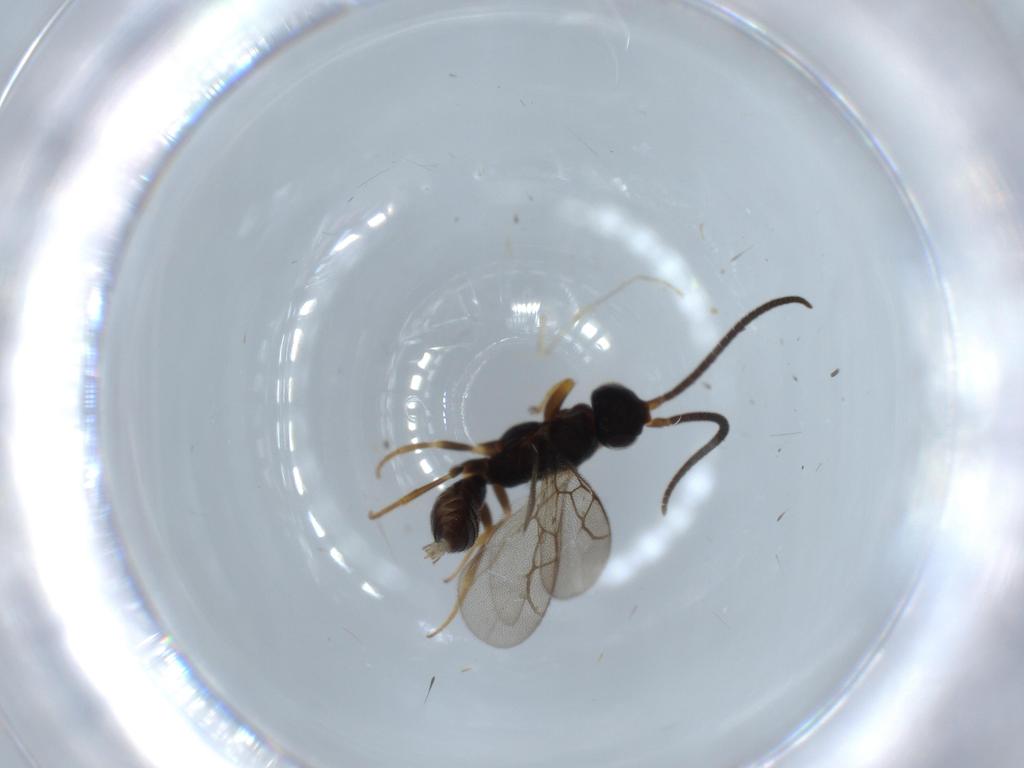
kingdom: Animalia
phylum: Arthropoda
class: Insecta
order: Hymenoptera
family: Sclerogibbidae
